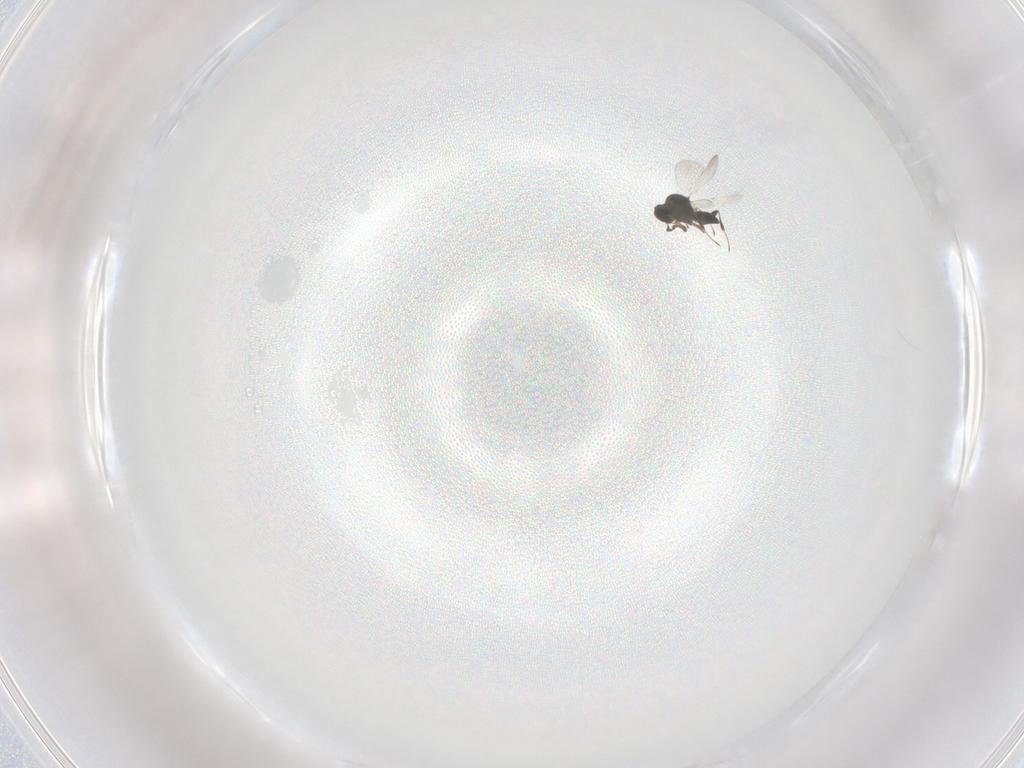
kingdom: Animalia
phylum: Arthropoda
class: Insecta
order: Hymenoptera
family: Platygastridae
